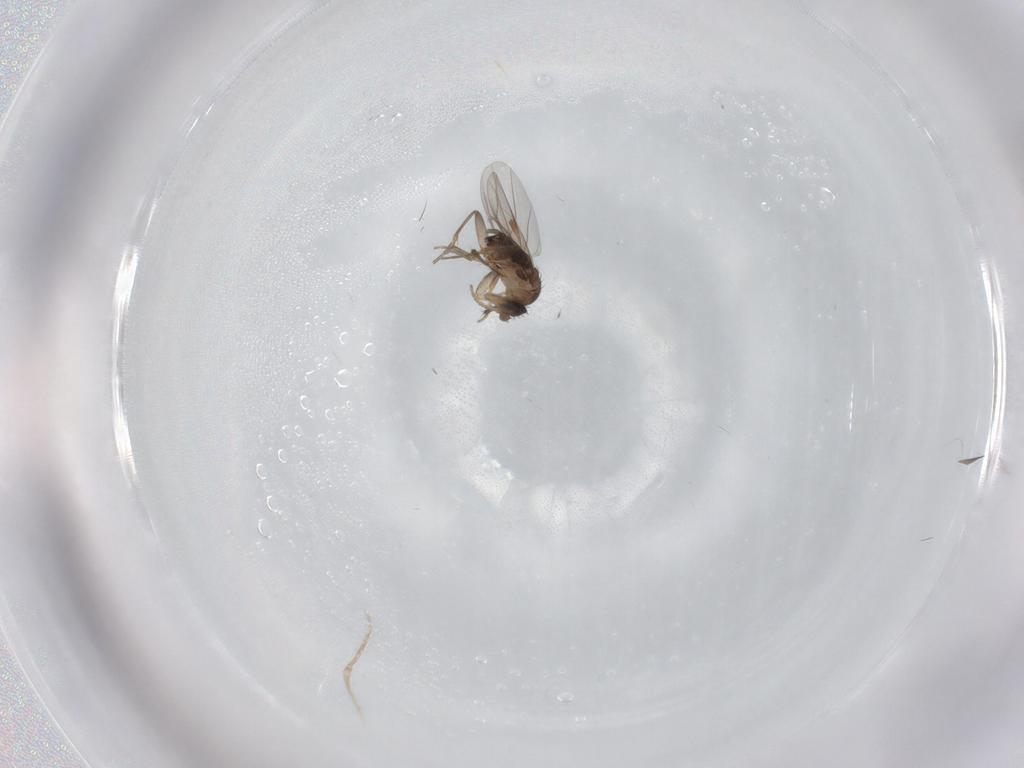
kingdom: Animalia
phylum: Arthropoda
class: Insecta
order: Diptera
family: Phoridae
